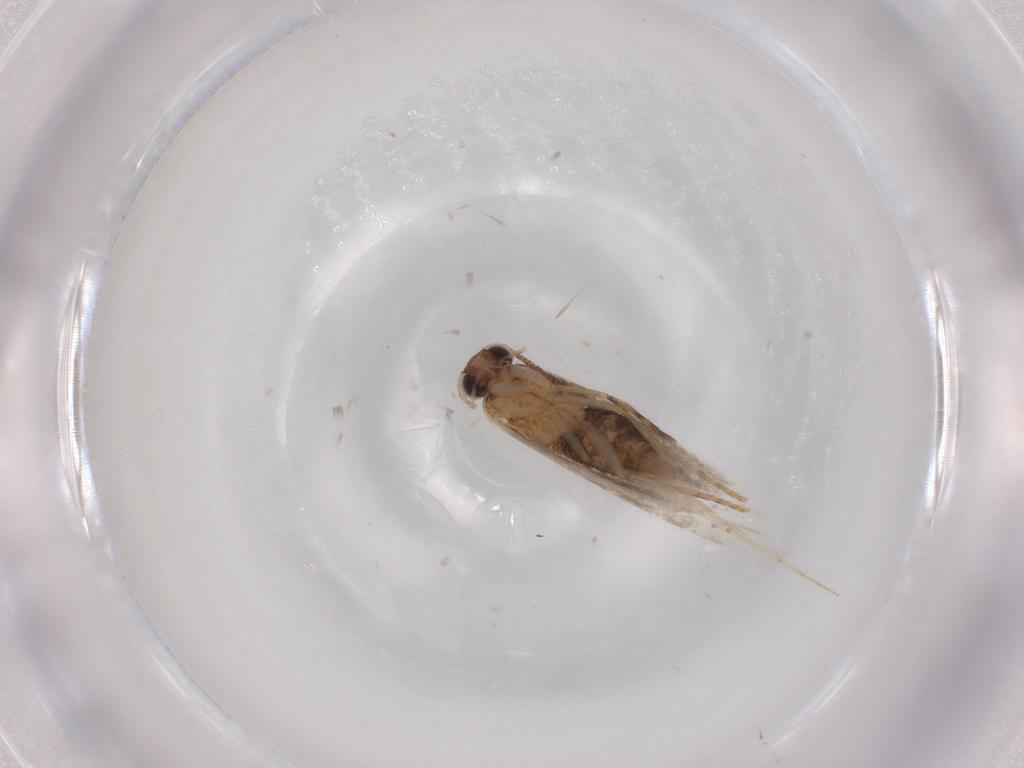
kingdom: Animalia
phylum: Arthropoda
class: Insecta
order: Lepidoptera
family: Tineidae
